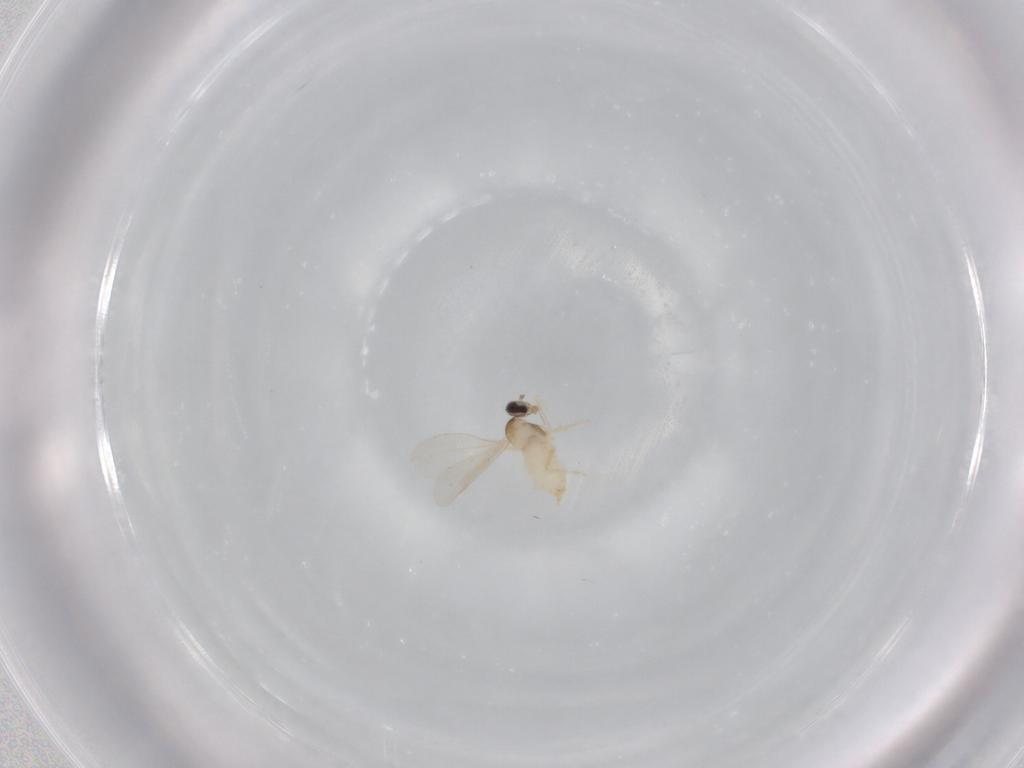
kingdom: Animalia
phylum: Arthropoda
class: Insecta
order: Diptera
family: Cecidomyiidae
